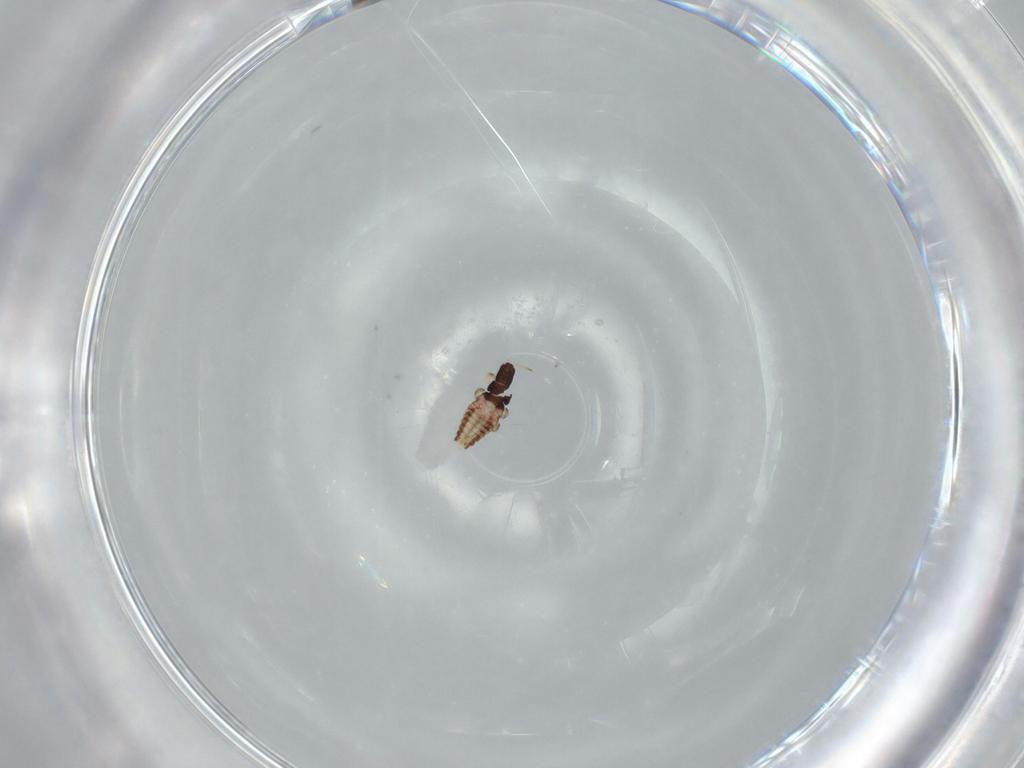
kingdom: Animalia
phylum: Arthropoda
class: Insecta
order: Thysanoptera
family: Phlaeothripidae
